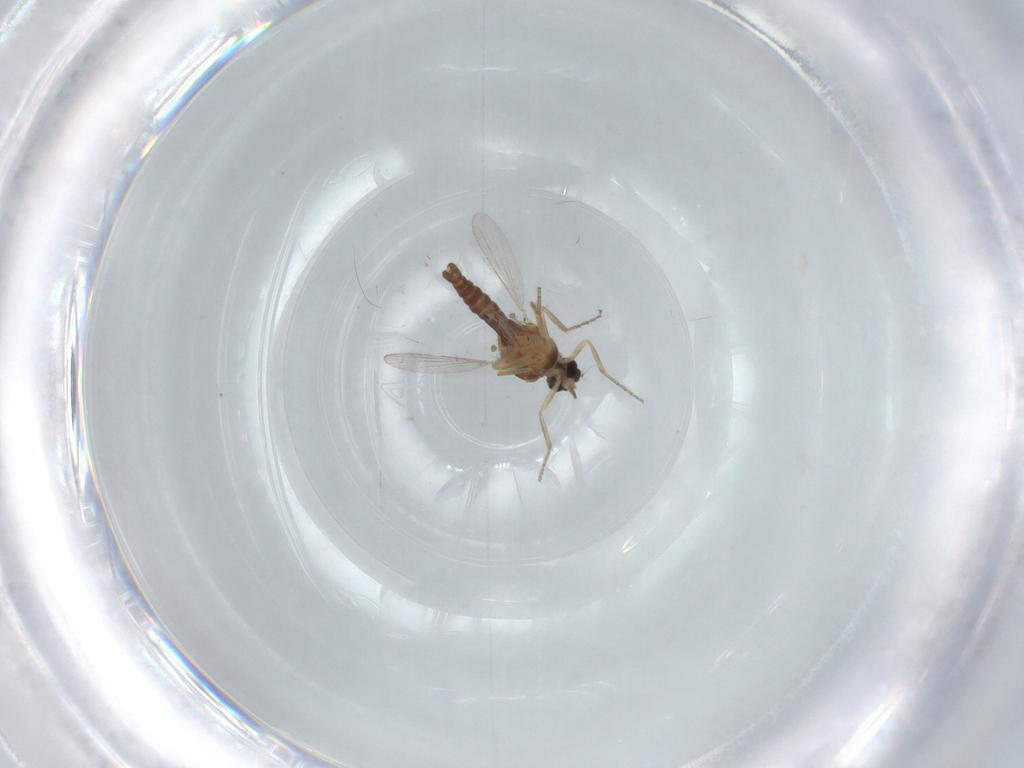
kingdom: Animalia
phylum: Arthropoda
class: Insecta
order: Diptera
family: Ceratopogonidae
